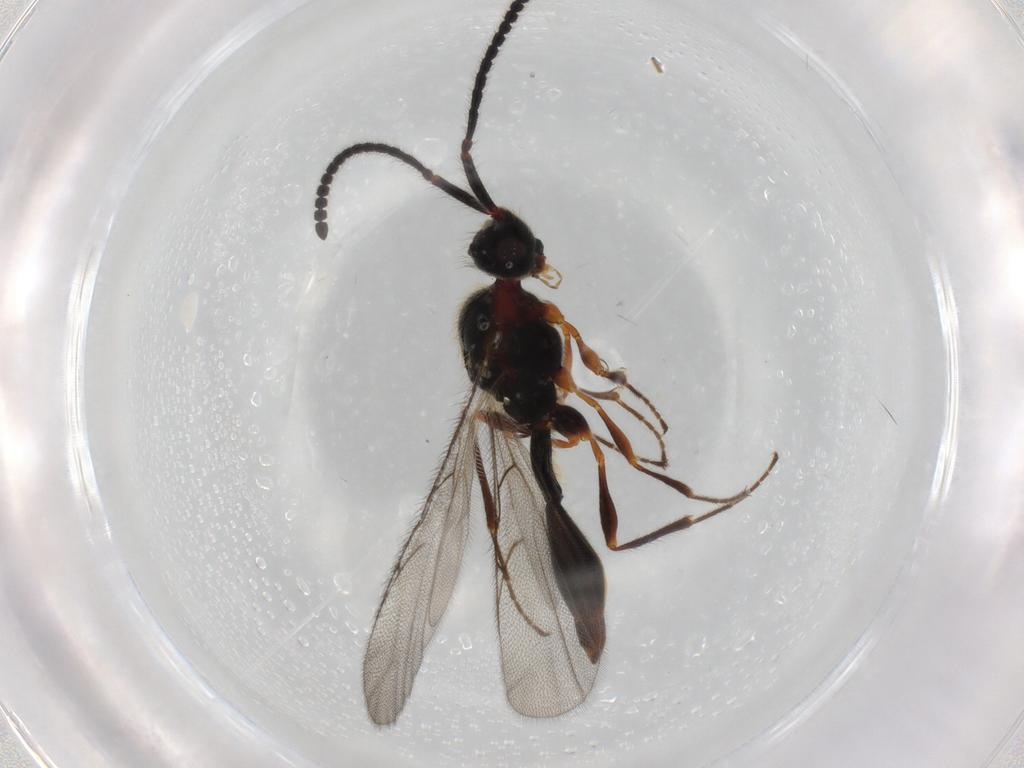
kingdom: Animalia
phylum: Arthropoda
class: Insecta
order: Hymenoptera
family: Diapriidae
